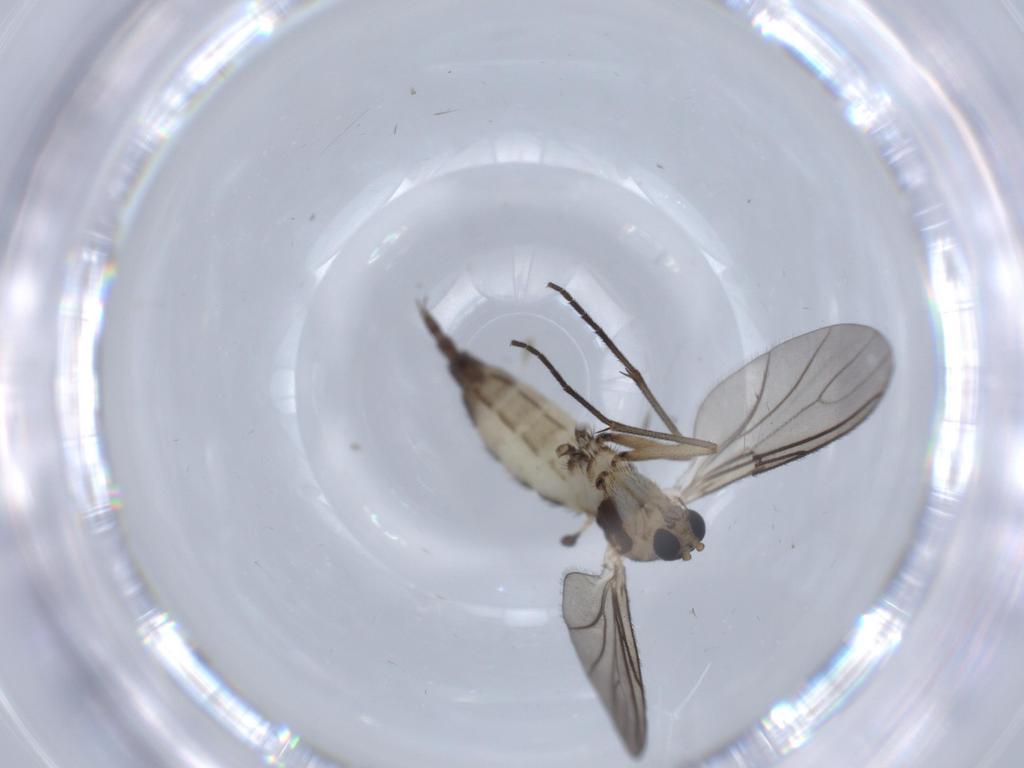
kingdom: Animalia
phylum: Arthropoda
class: Insecta
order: Diptera
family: Sciaridae
